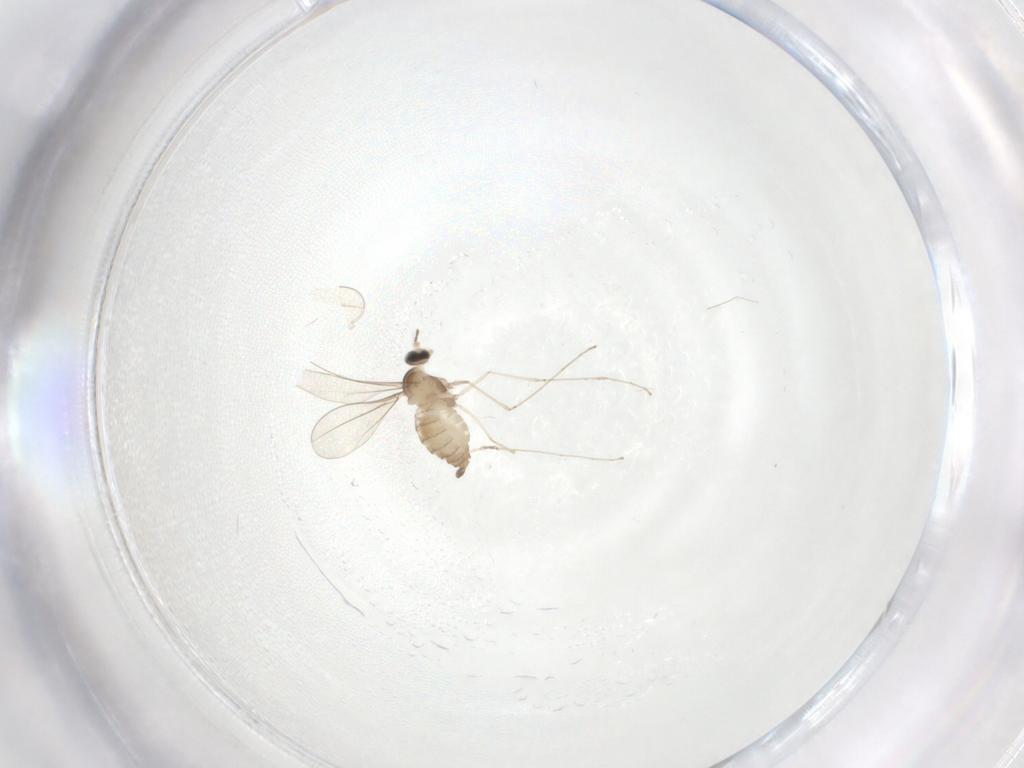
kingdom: Animalia
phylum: Arthropoda
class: Insecta
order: Diptera
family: Cecidomyiidae
